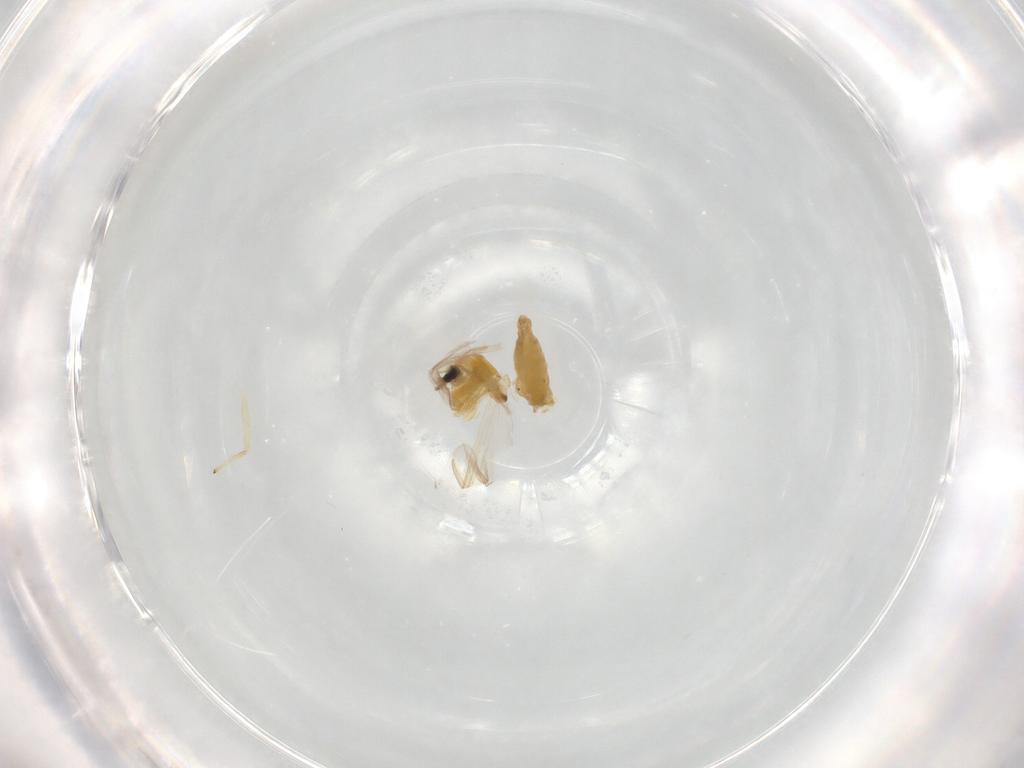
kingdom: Animalia
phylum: Arthropoda
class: Insecta
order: Diptera
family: Glossinidae
